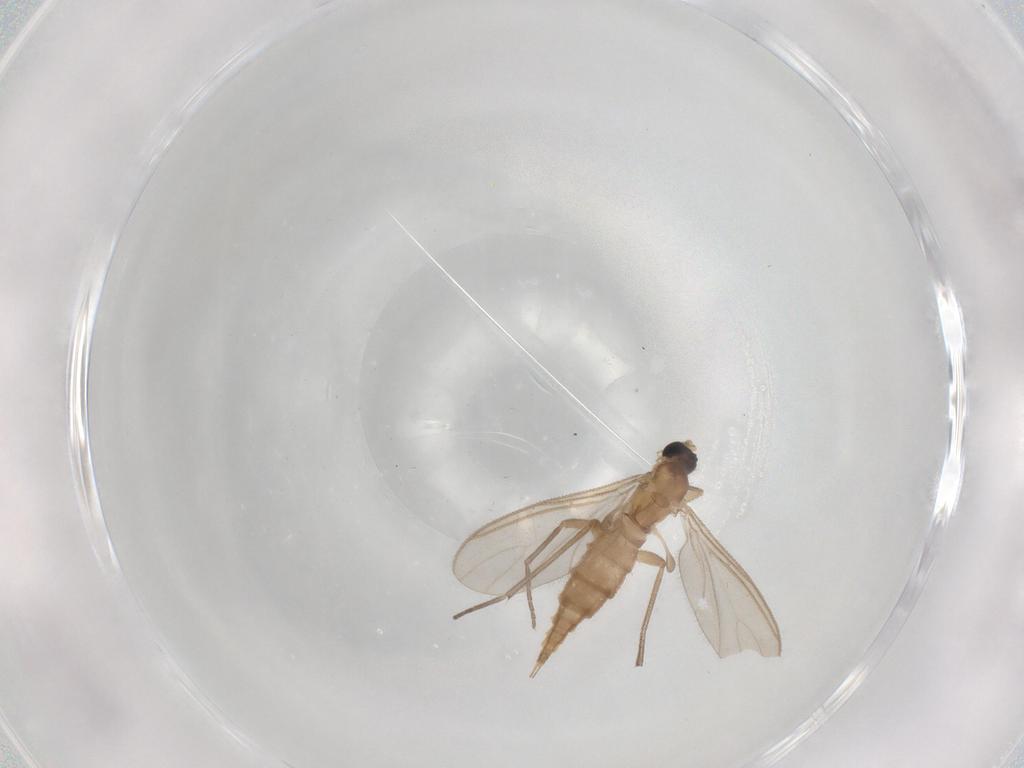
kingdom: Animalia
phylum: Arthropoda
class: Insecta
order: Diptera
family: Sciaridae
